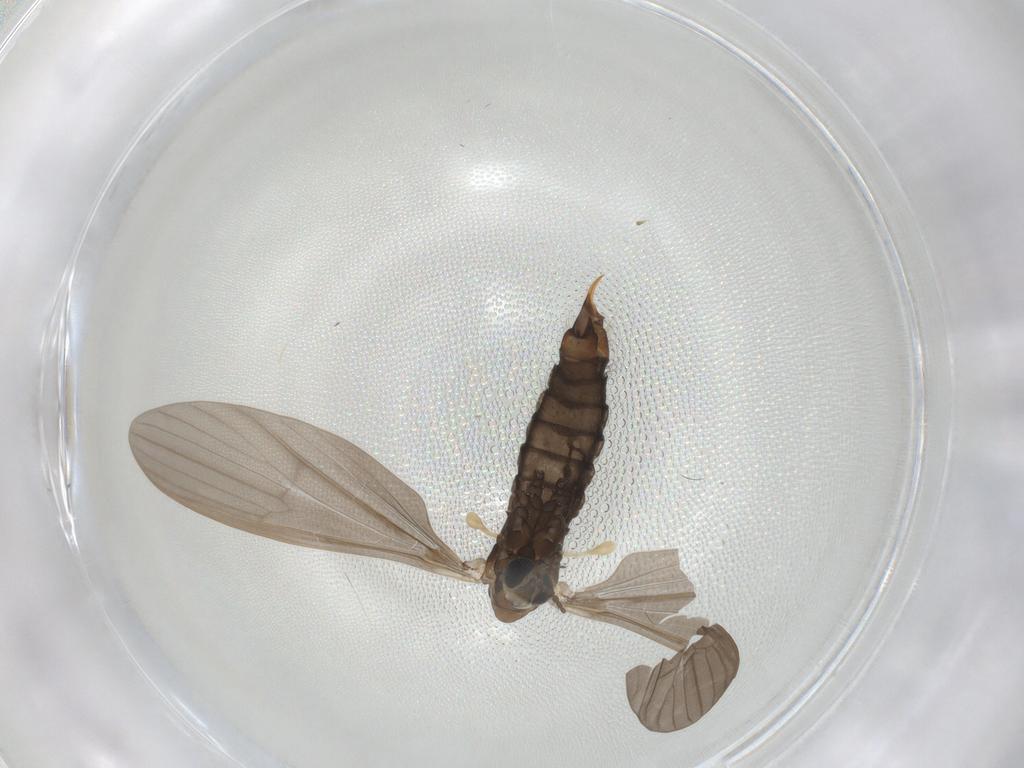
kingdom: Animalia
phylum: Arthropoda
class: Insecta
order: Diptera
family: Limoniidae
